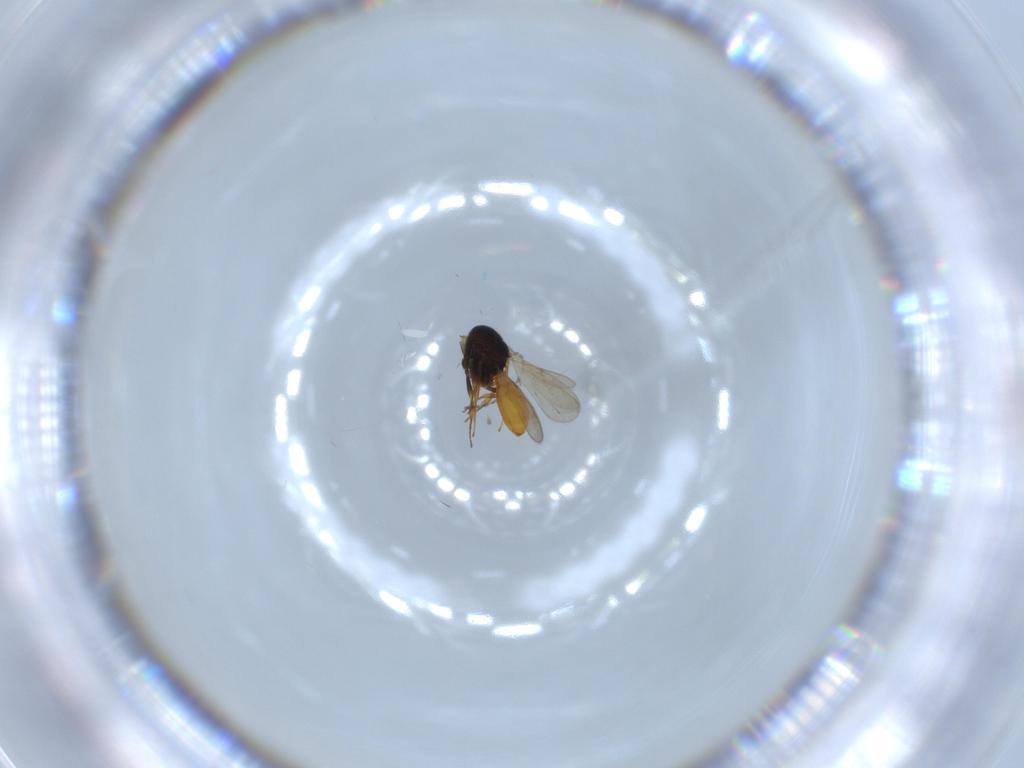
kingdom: Animalia
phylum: Arthropoda
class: Insecta
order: Hymenoptera
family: Scelionidae
